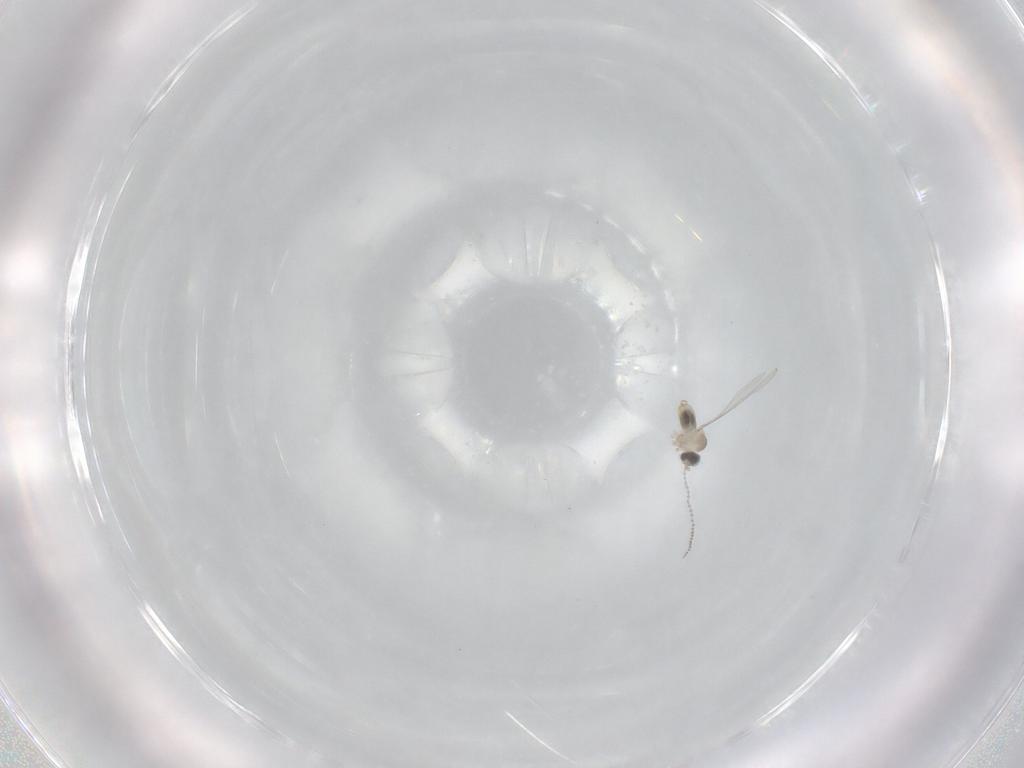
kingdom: Animalia
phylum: Arthropoda
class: Insecta
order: Diptera
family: Cecidomyiidae
